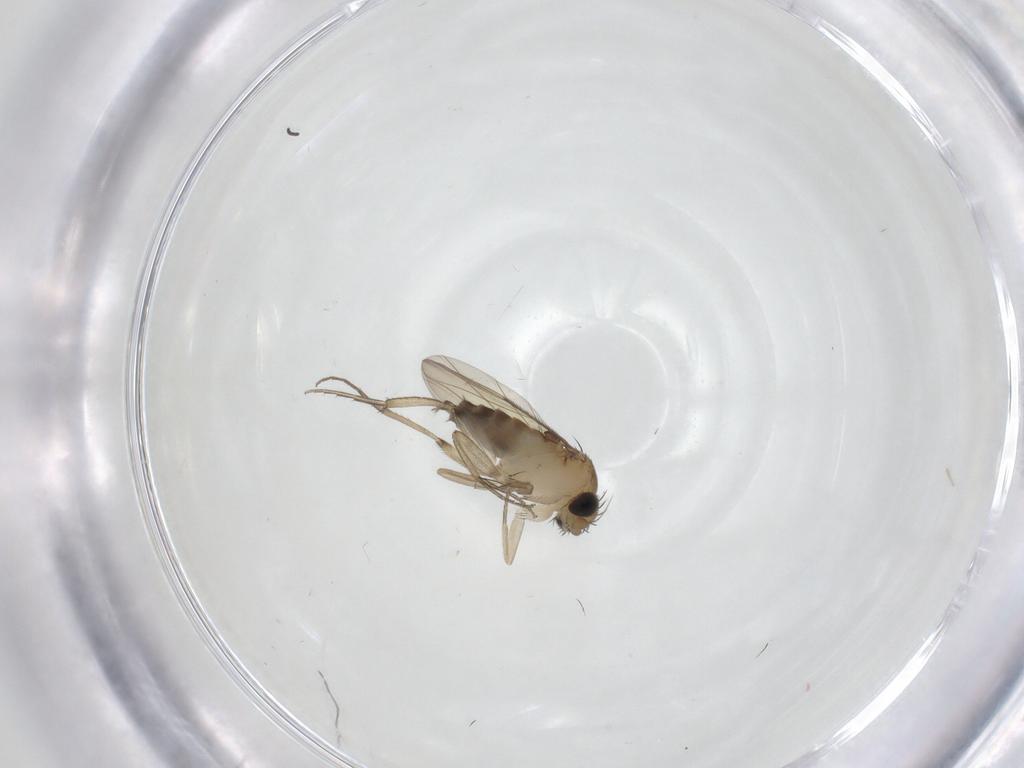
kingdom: Animalia
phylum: Arthropoda
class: Insecta
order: Diptera
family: Phoridae
